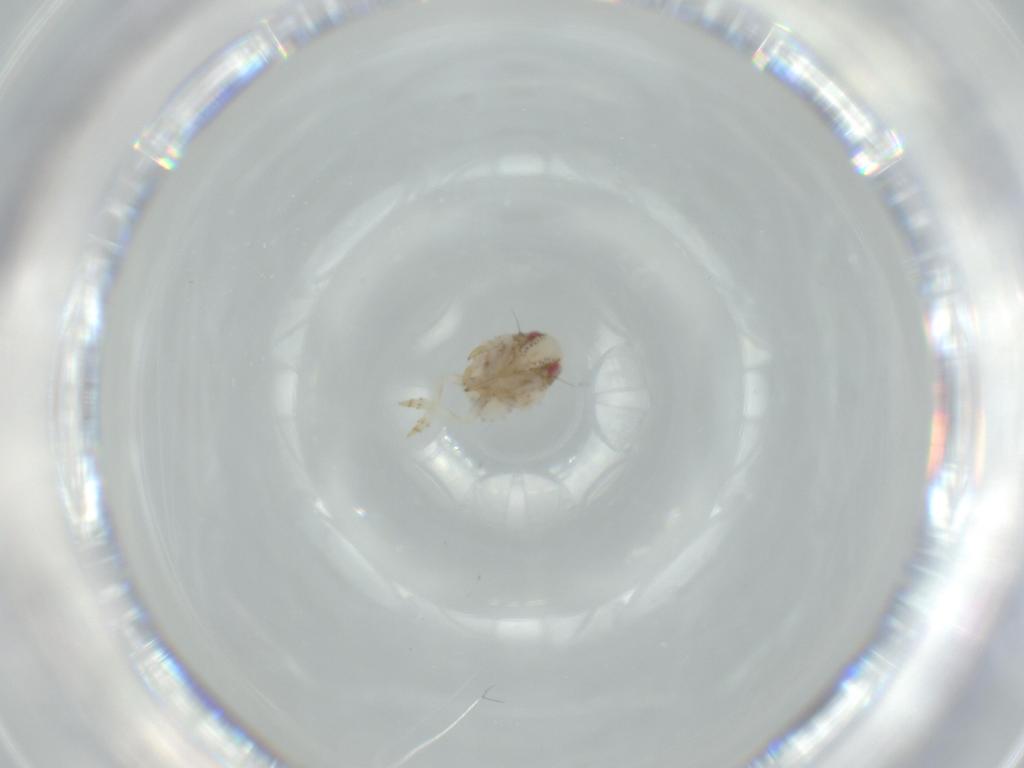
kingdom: Animalia
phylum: Arthropoda
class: Insecta
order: Hemiptera
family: Acanaloniidae
